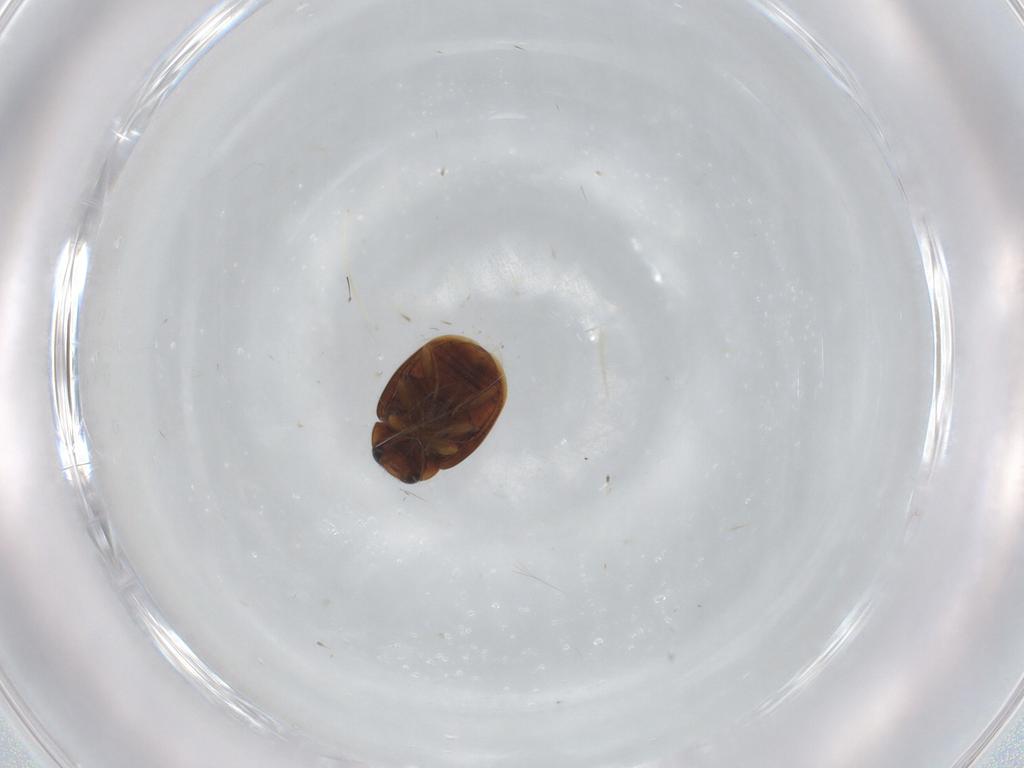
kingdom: Animalia
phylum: Arthropoda
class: Insecta
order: Coleoptera
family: Coccinellidae
